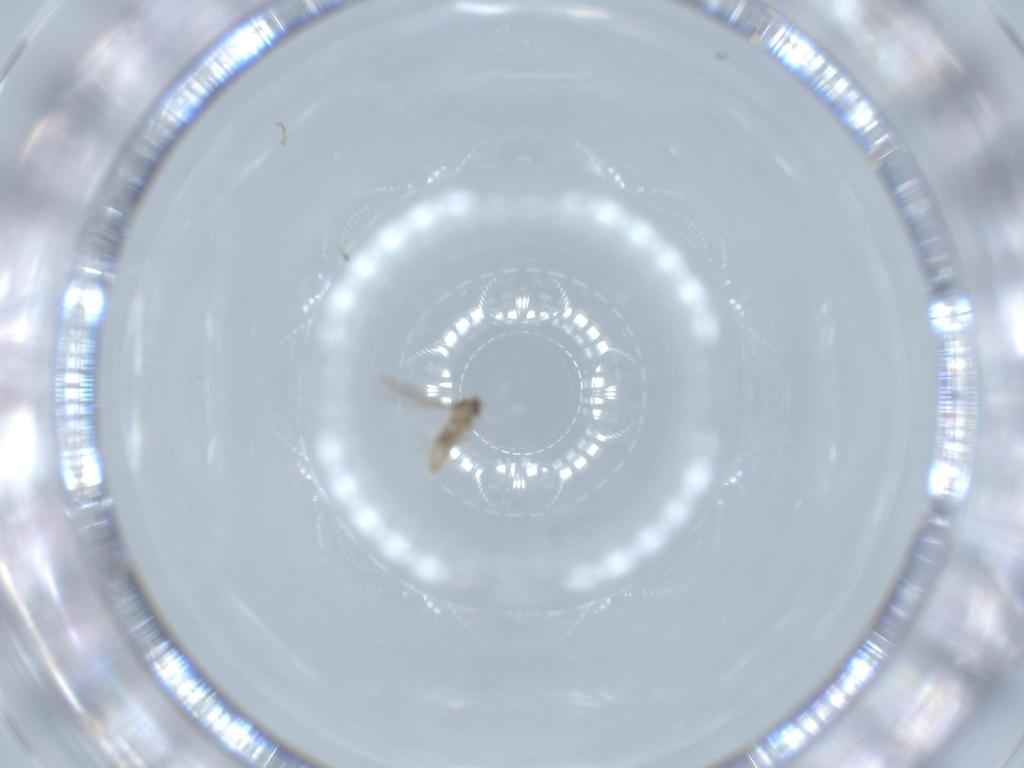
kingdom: Animalia
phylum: Arthropoda
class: Insecta
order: Diptera
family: Sciaridae
